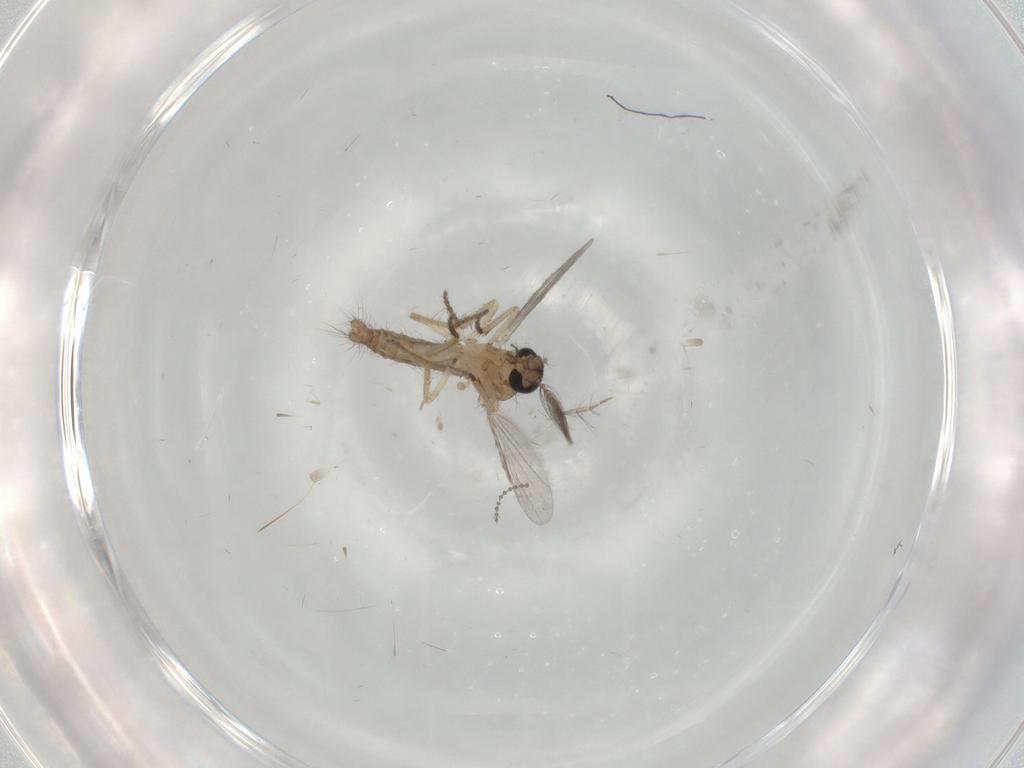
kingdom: Animalia
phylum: Arthropoda
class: Insecta
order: Diptera
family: Ceratopogonidae
